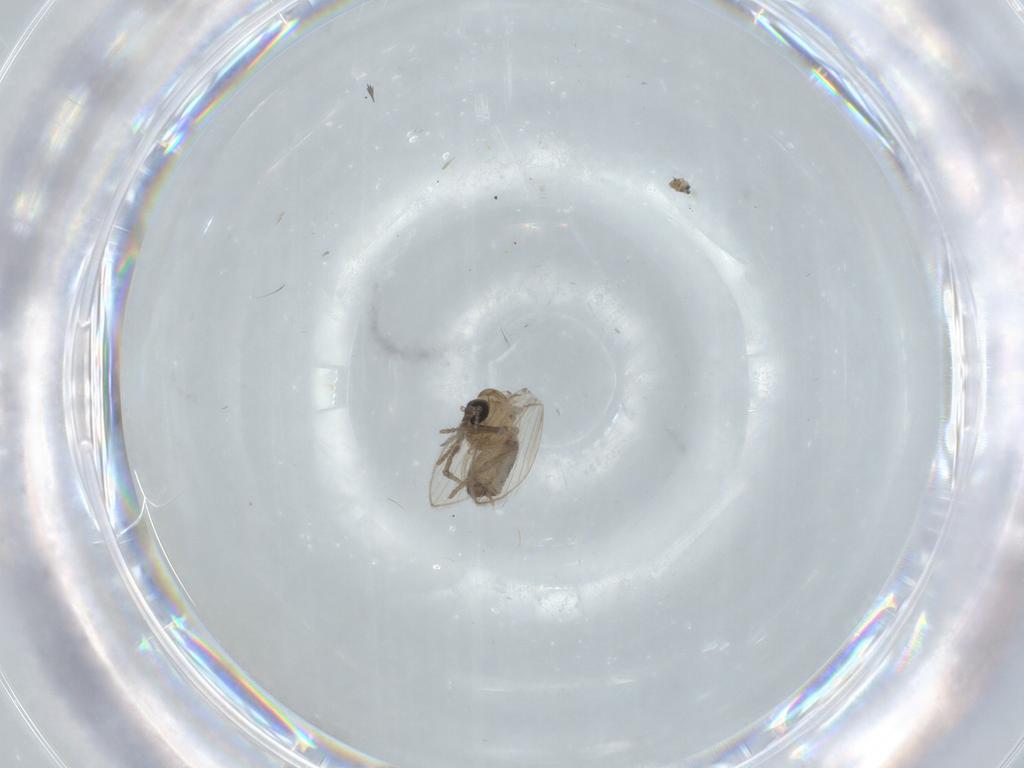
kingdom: Animalia
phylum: Arthropoda
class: Insecta
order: Diptera
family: Psychodidae
